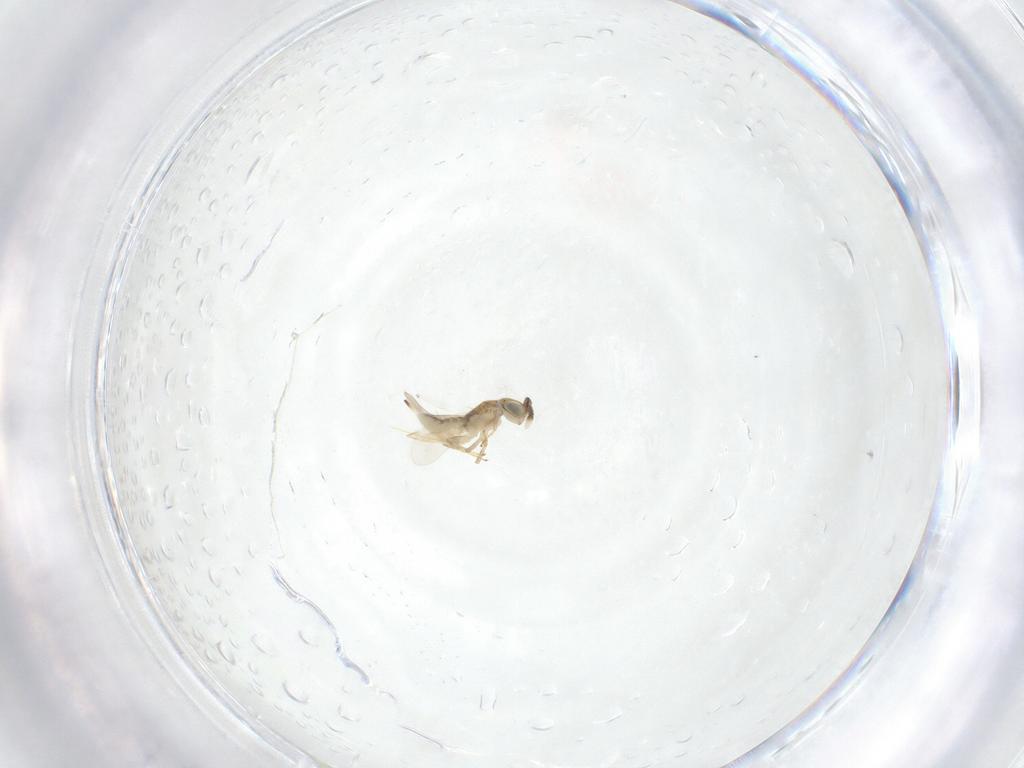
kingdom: Animalia
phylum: Arthropoda
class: Insecta
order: Hymenoptera
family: Encyrtidae
